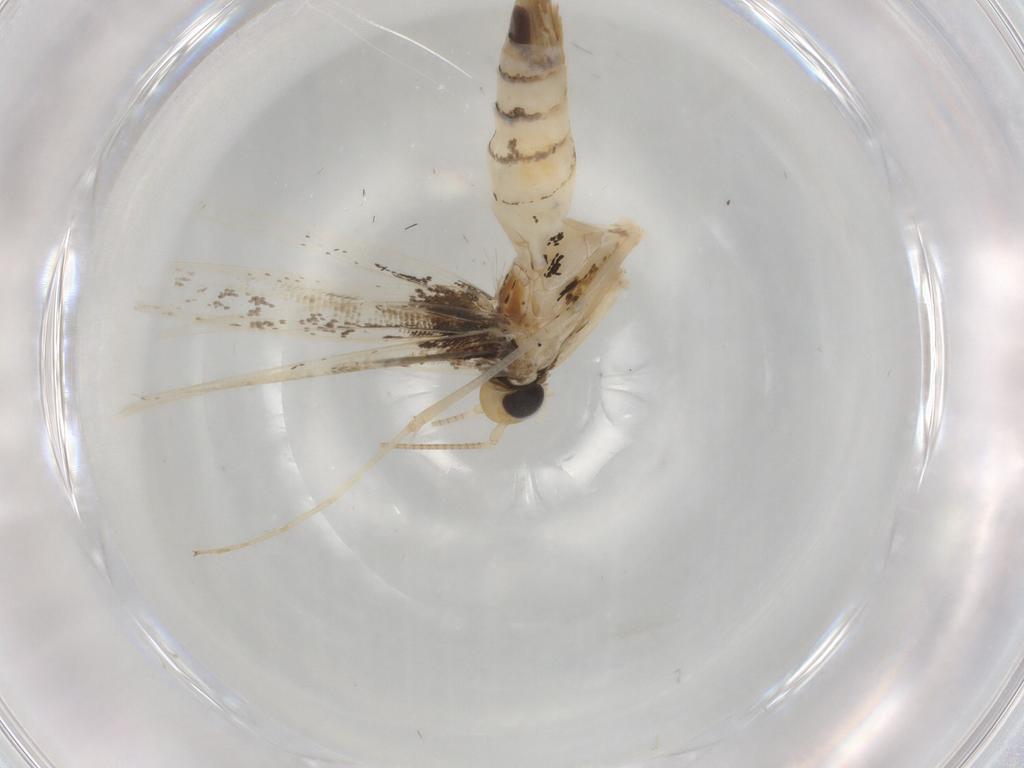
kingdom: Animalia
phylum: Arthropoda
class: Insecta
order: Lepidoptera
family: Gracillariidae
